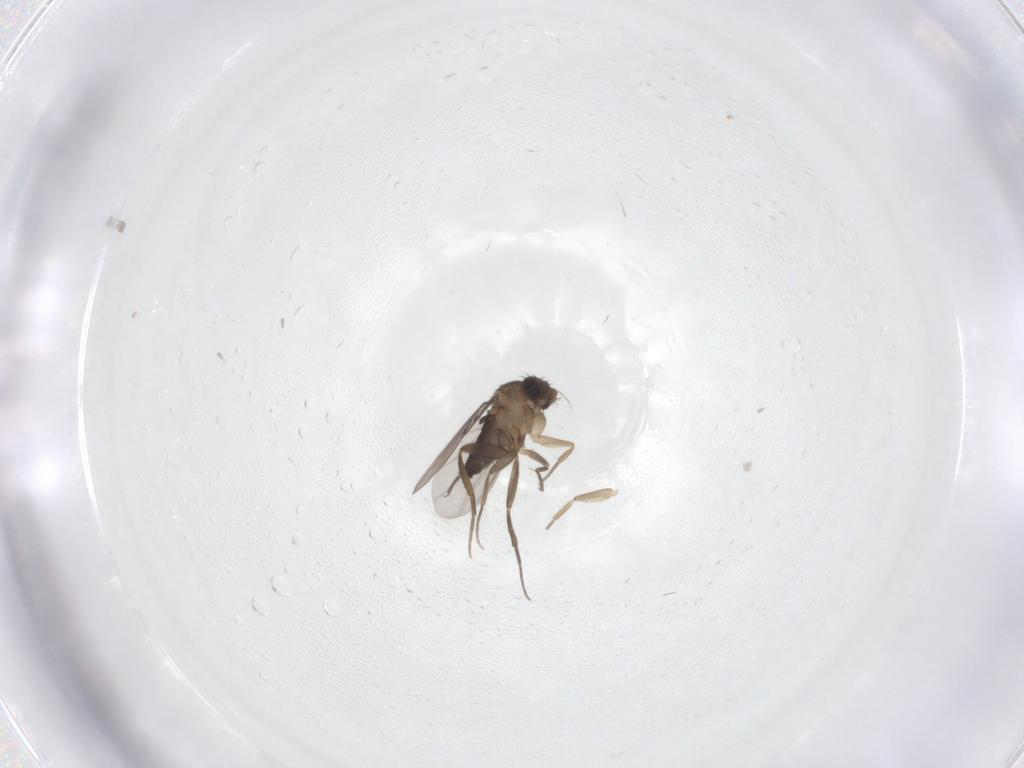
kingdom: Animalia
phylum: Arthropoda
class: Insecta
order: Diptera
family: Phoridae
